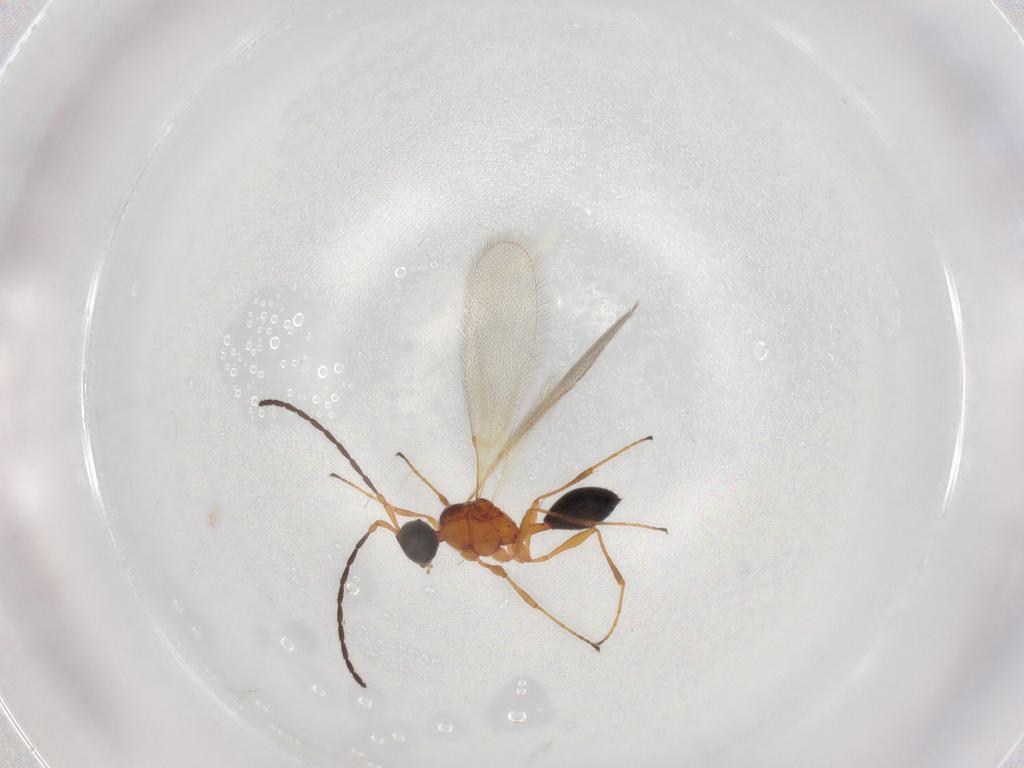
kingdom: Animalia
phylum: Arthropoda
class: Insecta
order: Hymenoptera
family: Diapriidae
